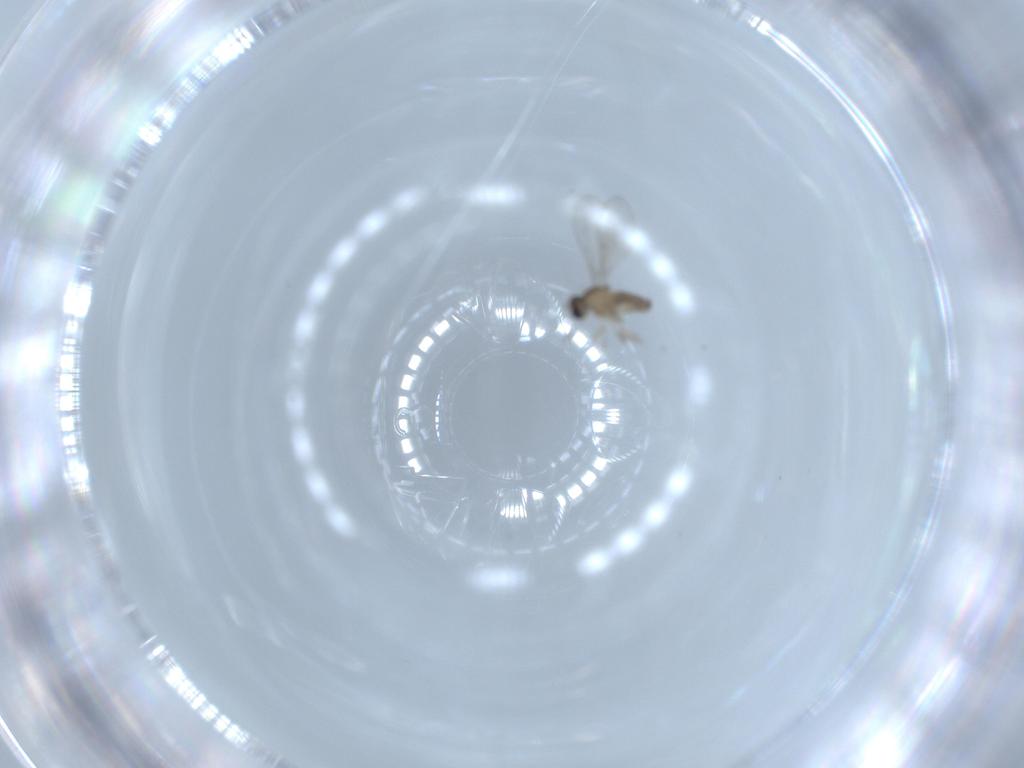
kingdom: Animalia
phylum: Arthropoda
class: Insecta
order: Diptera
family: Cecidomyiidae
